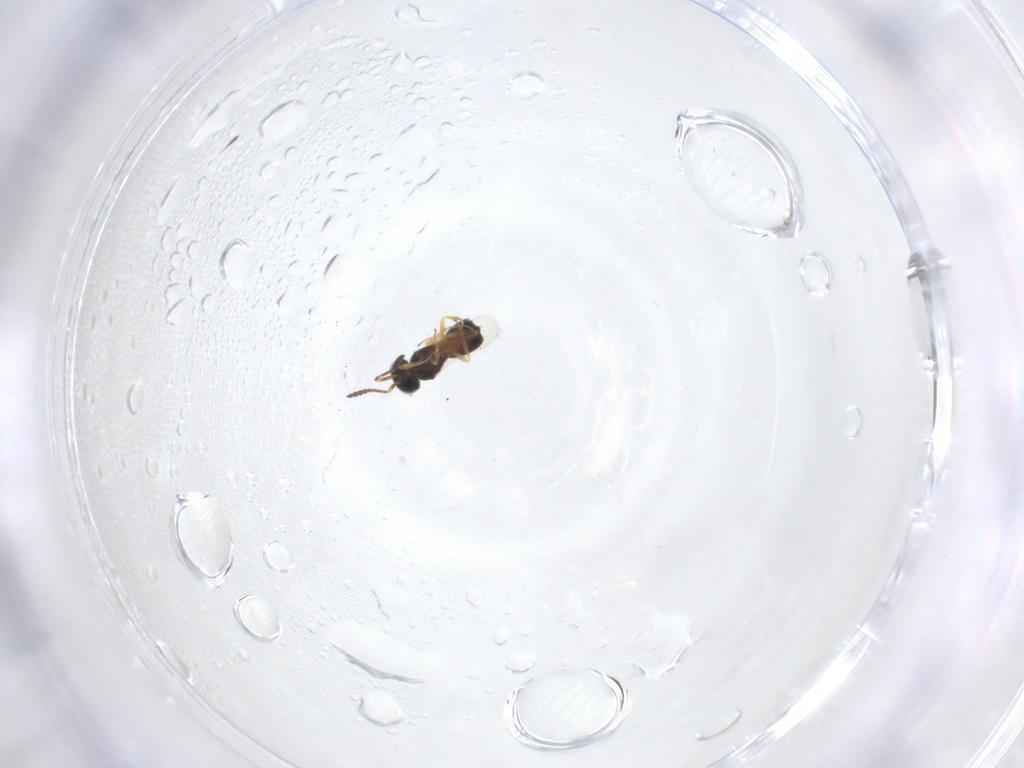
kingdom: Animalia
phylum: Arthropoda
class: Insecta
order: Hymenoptera
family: Scelionidae
